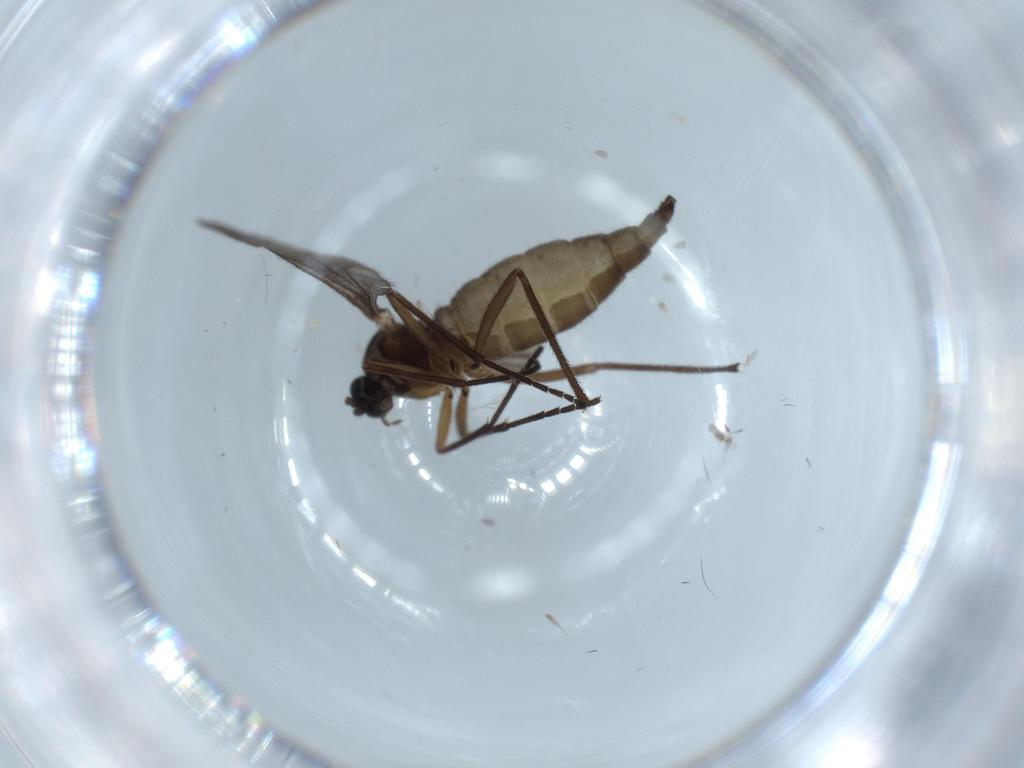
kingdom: Animalia
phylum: Arthropoda
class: Insecta
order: Diptera
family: Sciaridae
